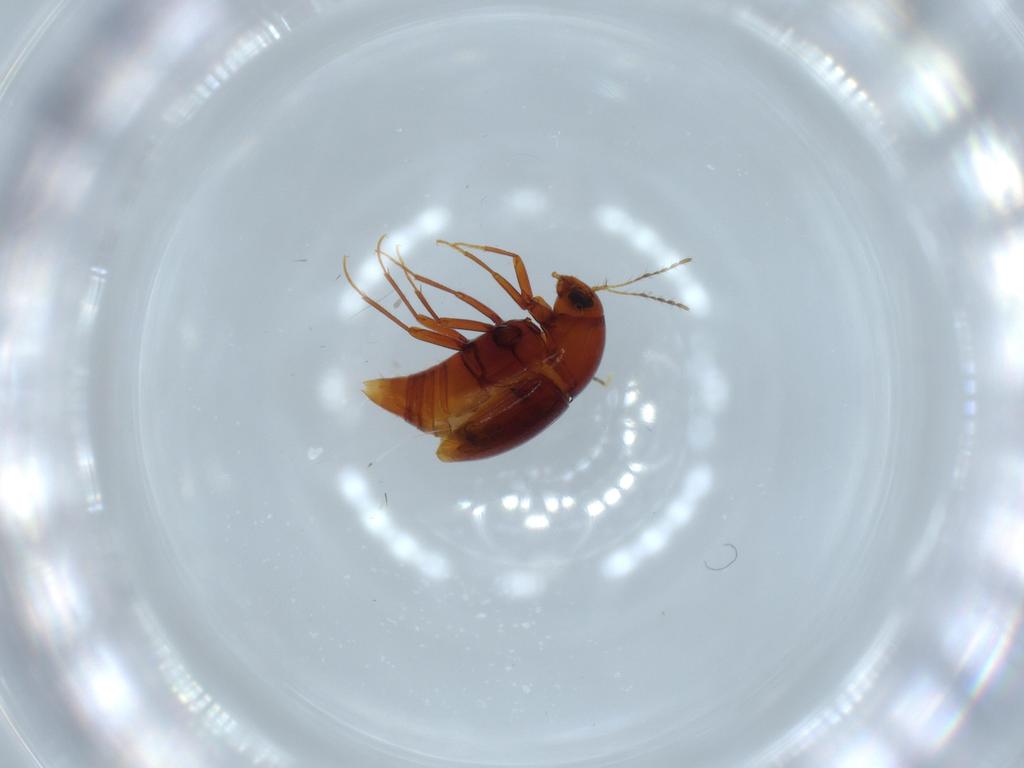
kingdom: Animalia
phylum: Arthropoda
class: Insecta
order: Coleoptera
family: Staphylinidae
